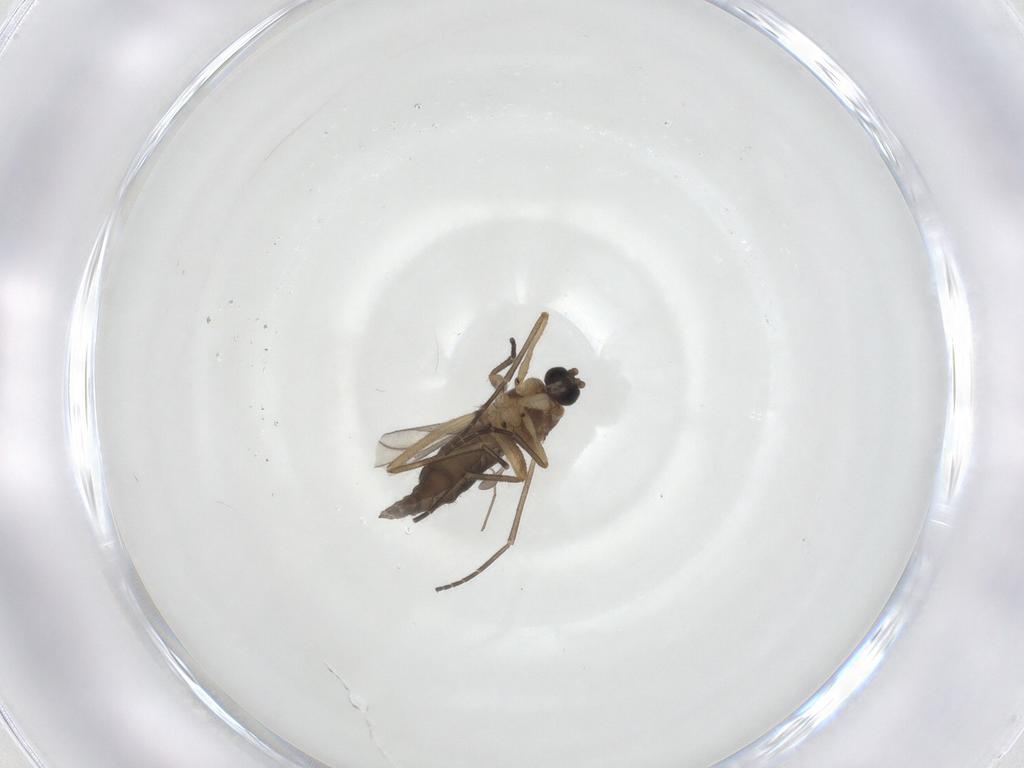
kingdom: Animalia
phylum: Arthropoda
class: Insecta
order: Diptera
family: Sciaridae
